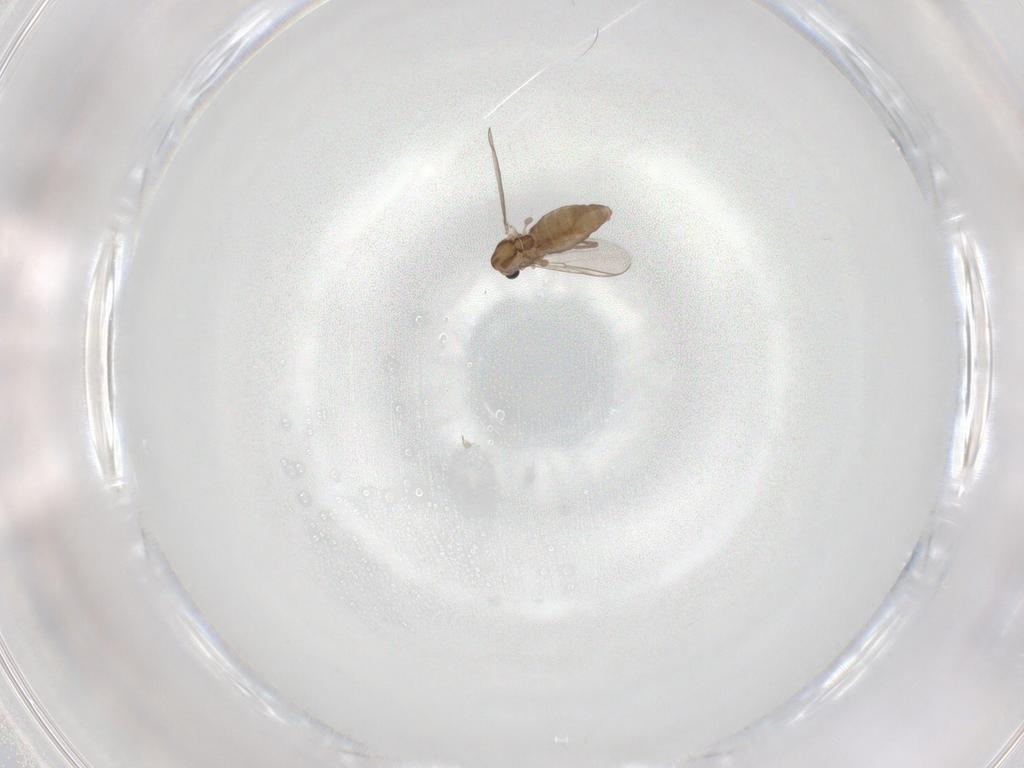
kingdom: Animalia
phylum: Arthropoda
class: Insecta
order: Diptera
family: Chironomidae
